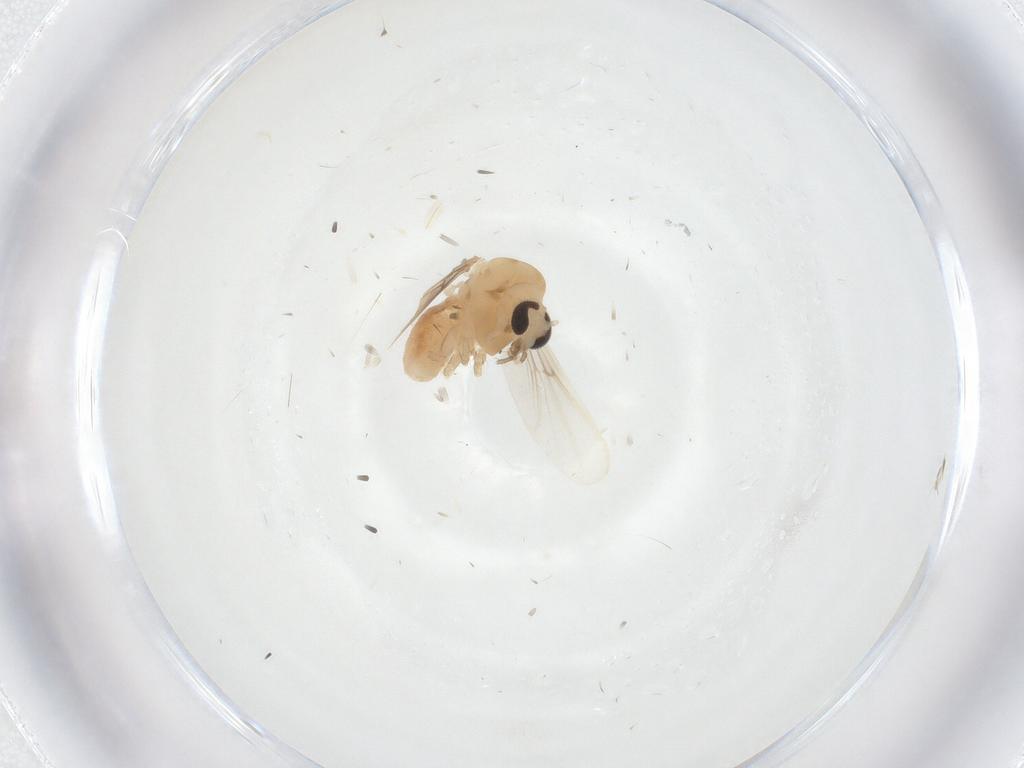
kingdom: Animalia
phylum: Arthropoda
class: Insecta
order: Diptera
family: Chironomidae
